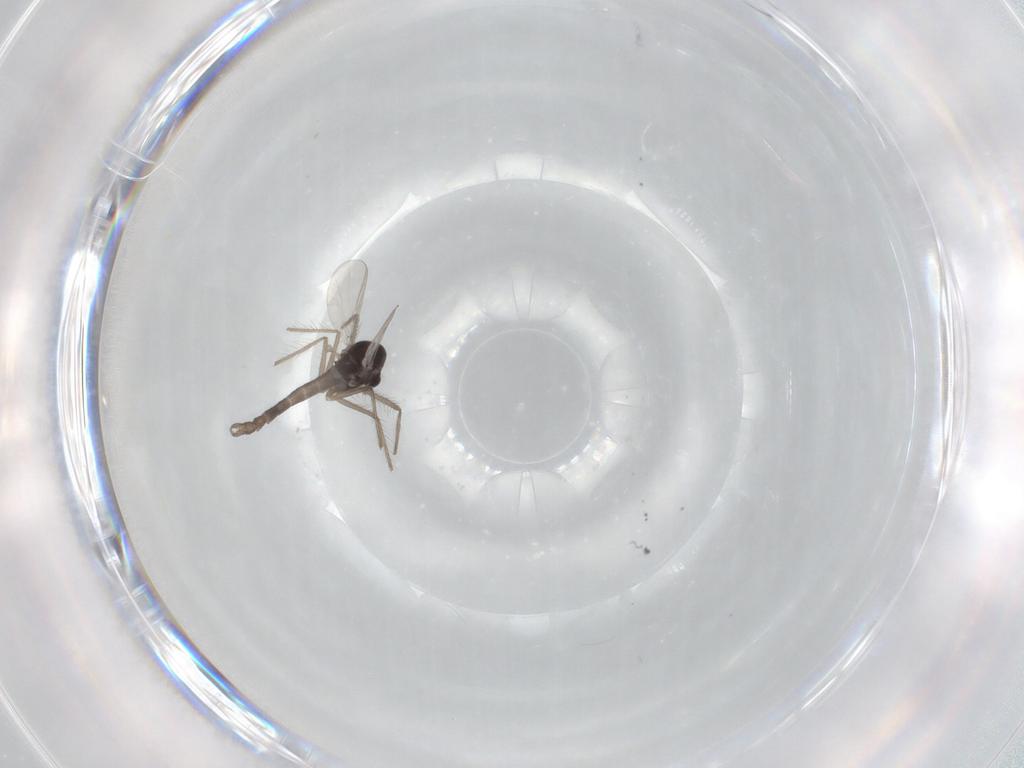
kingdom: Animalia
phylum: Arthropoda
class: Insecta
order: Diptera
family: Chironomidae
